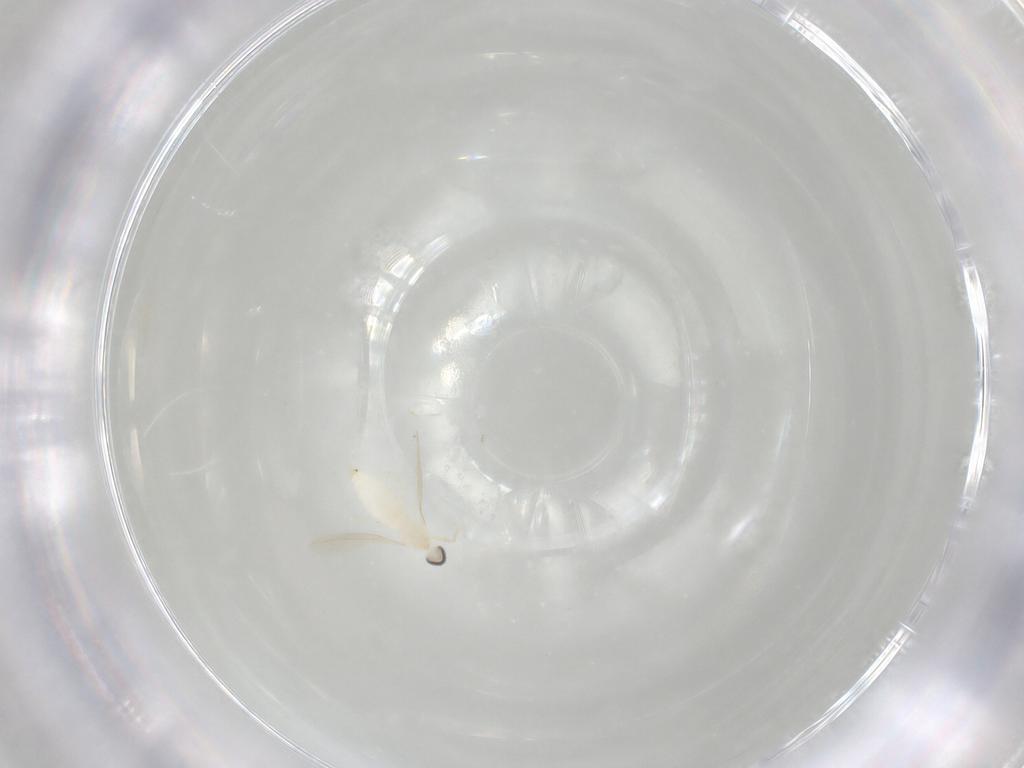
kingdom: Animalia
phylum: Arthropoda
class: Insecta
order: Diptera
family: Cecidomyiidae
